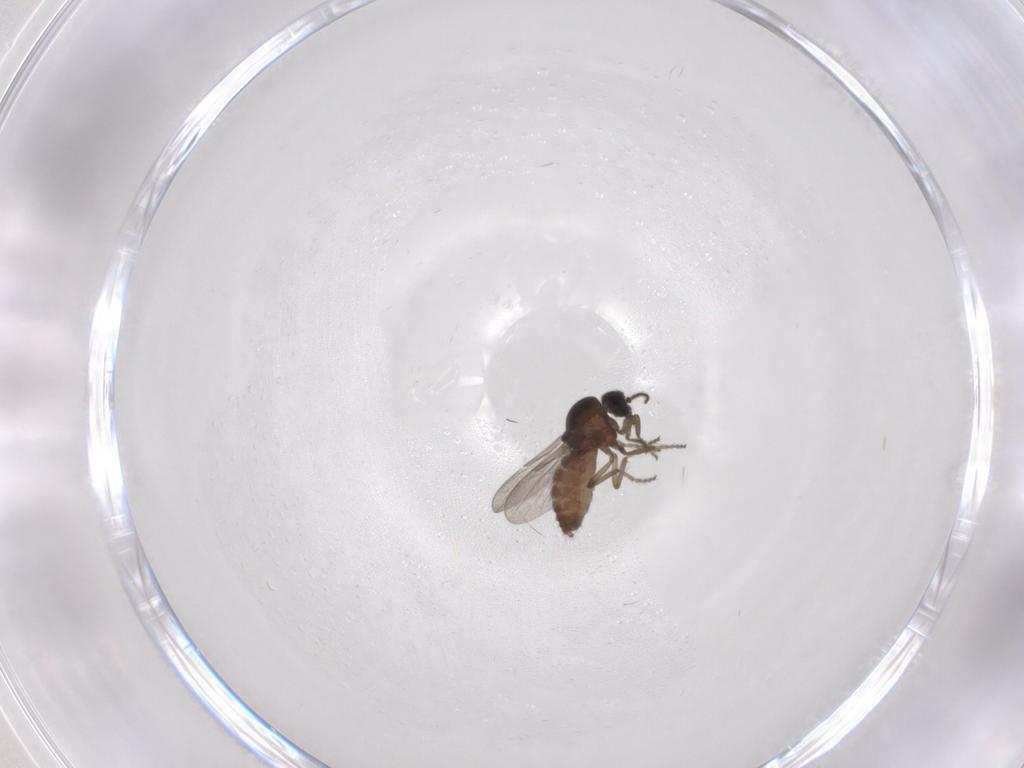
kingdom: Animalia
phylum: Arthropoda
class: Insecta
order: Diptera
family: Ceratopogonidae
